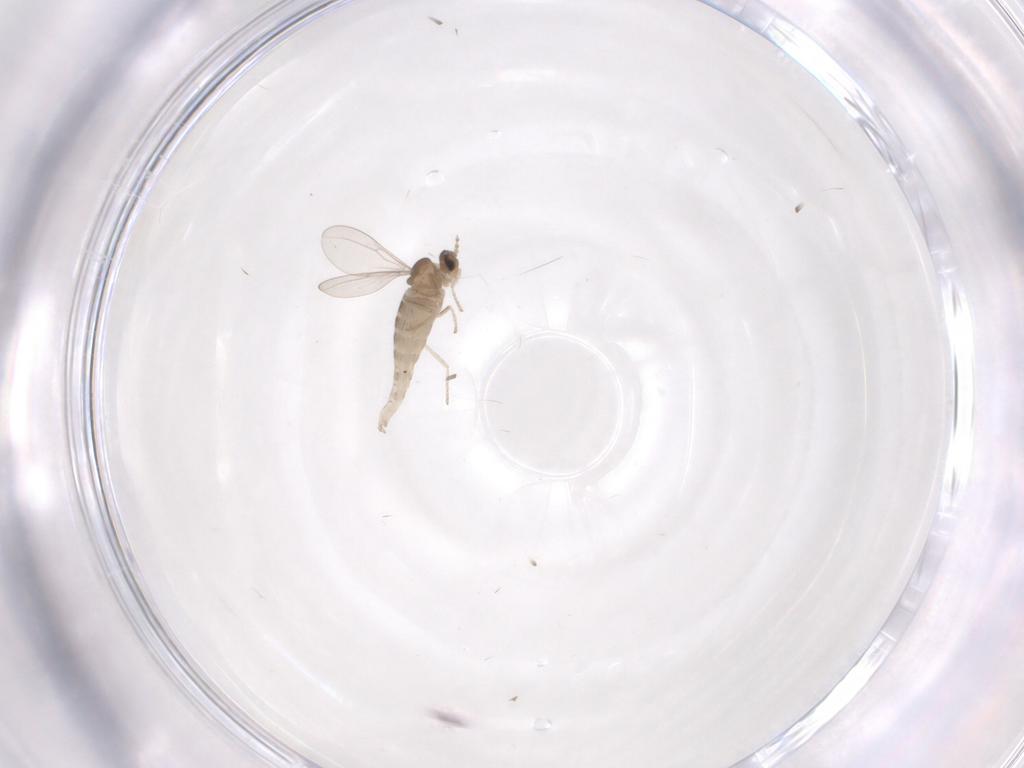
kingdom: Animalia
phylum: Arthropoda
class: Insecta
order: Diptera
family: Cecidomyiidae
